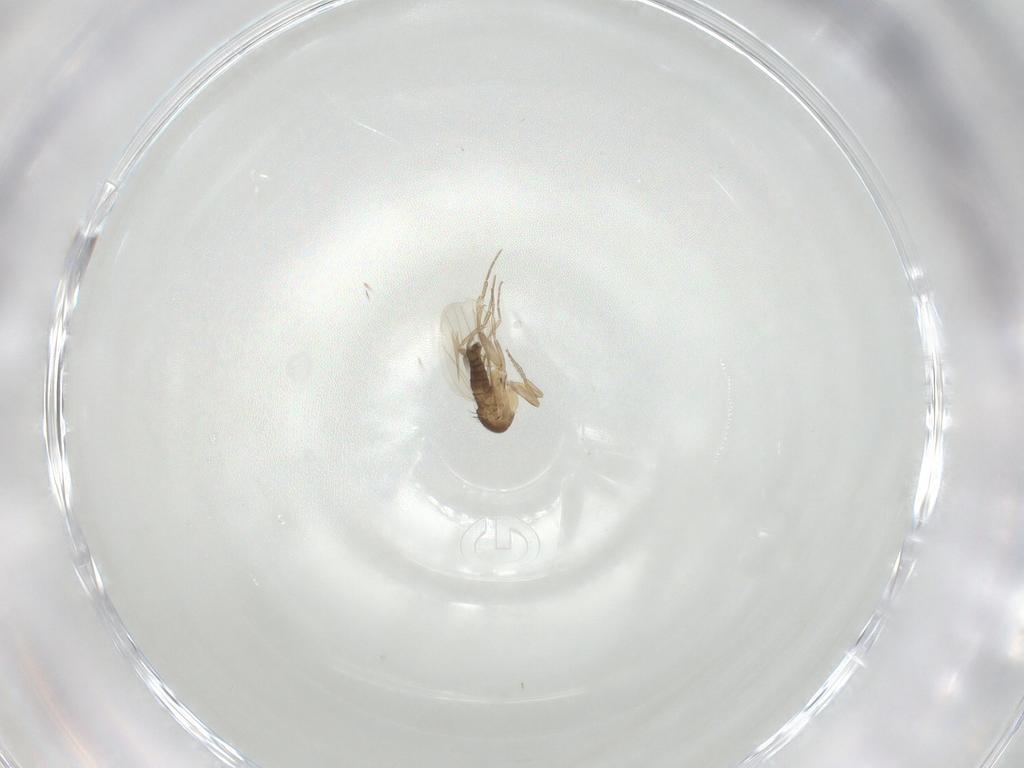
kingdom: Animalia
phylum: Arthropoda
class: Insecta
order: Diptera
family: Phoridae
